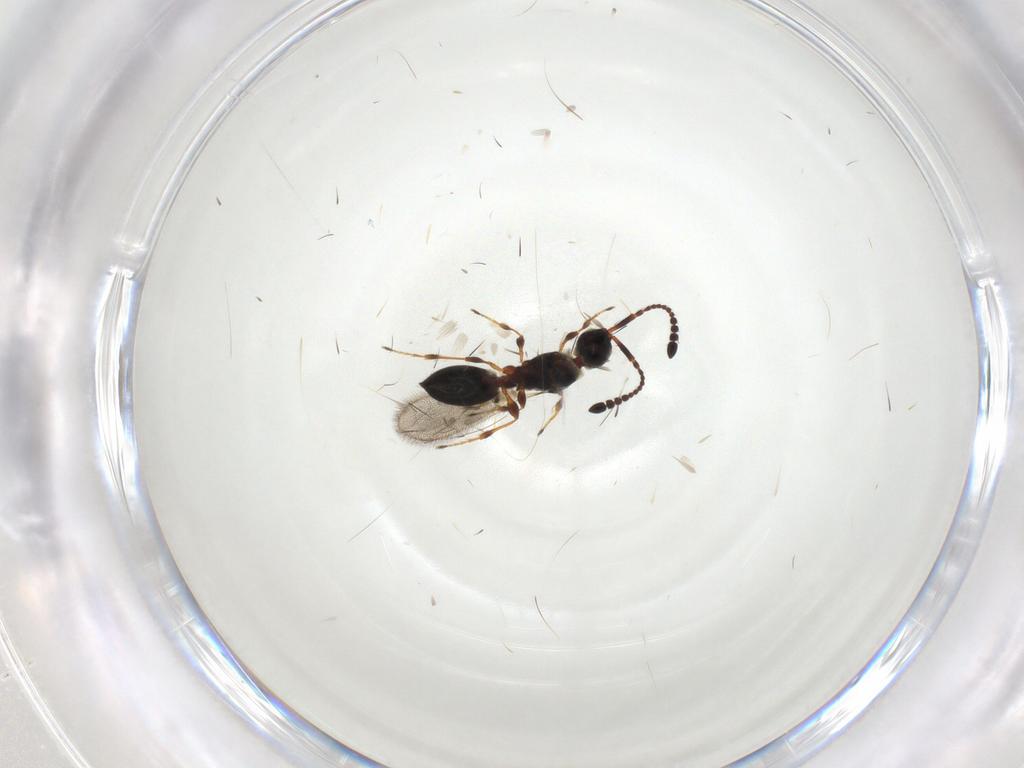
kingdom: Animalia
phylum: Arthropoda
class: Insecta
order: Hymenoptera
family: Diapriidae
